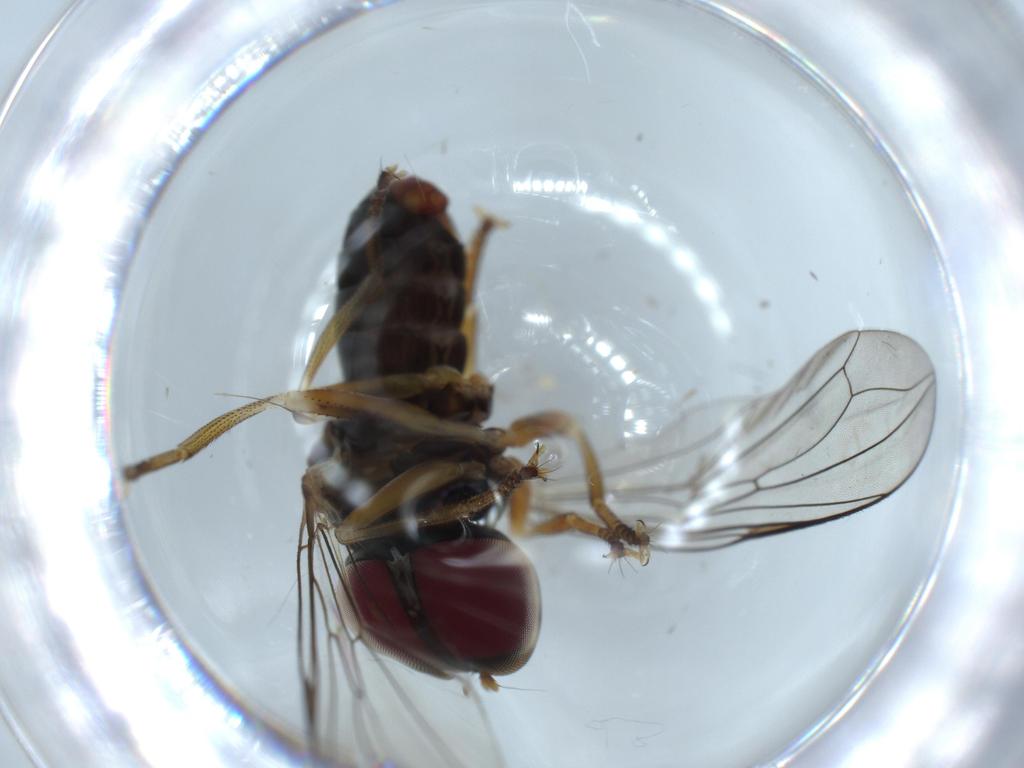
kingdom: Animalia
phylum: Arthropoda
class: Insecta
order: Diptera
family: Pipunculidae
